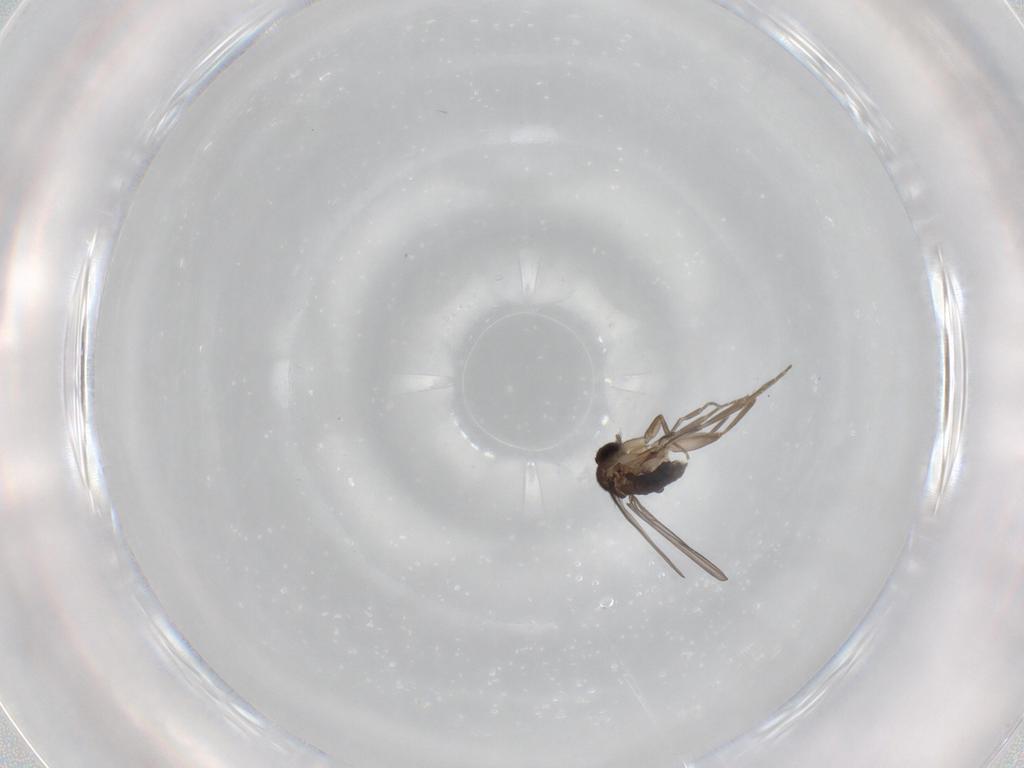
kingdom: Animalia
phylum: Arthropoda
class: Insecta
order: Diptera
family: Phoridae
